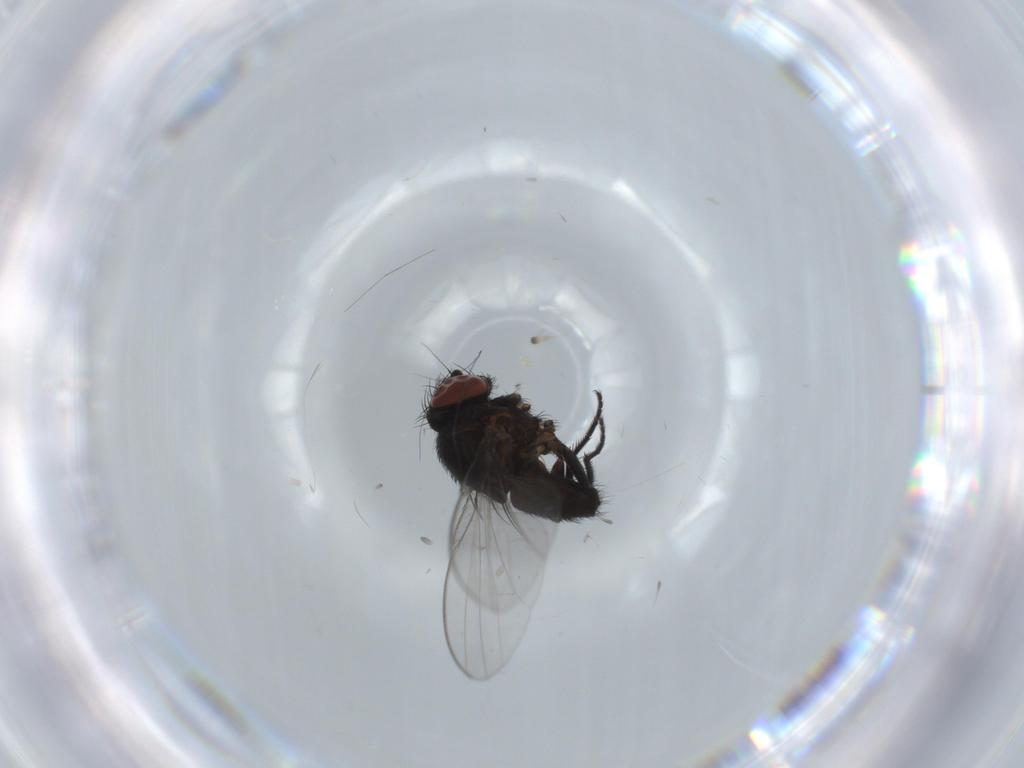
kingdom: Animalia
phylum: Arthropoda
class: Insecta
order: Diptera
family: Milichiidae
